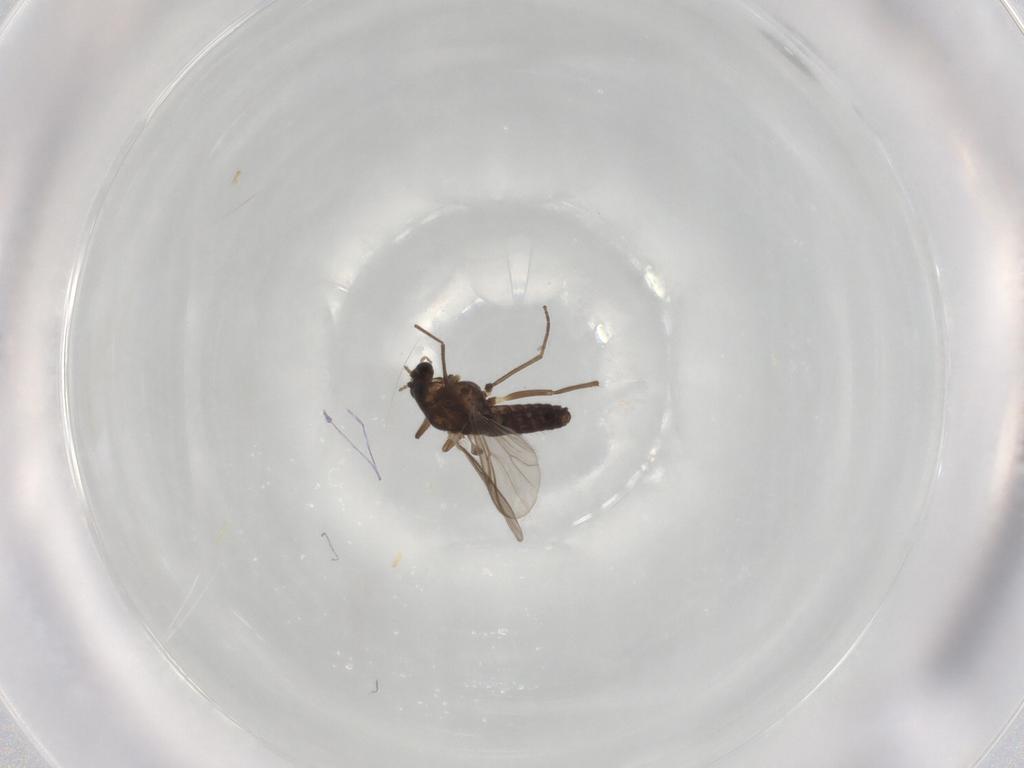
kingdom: Animalia
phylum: Arthropoda
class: Insecta
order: Diptera
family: Chironomidae
